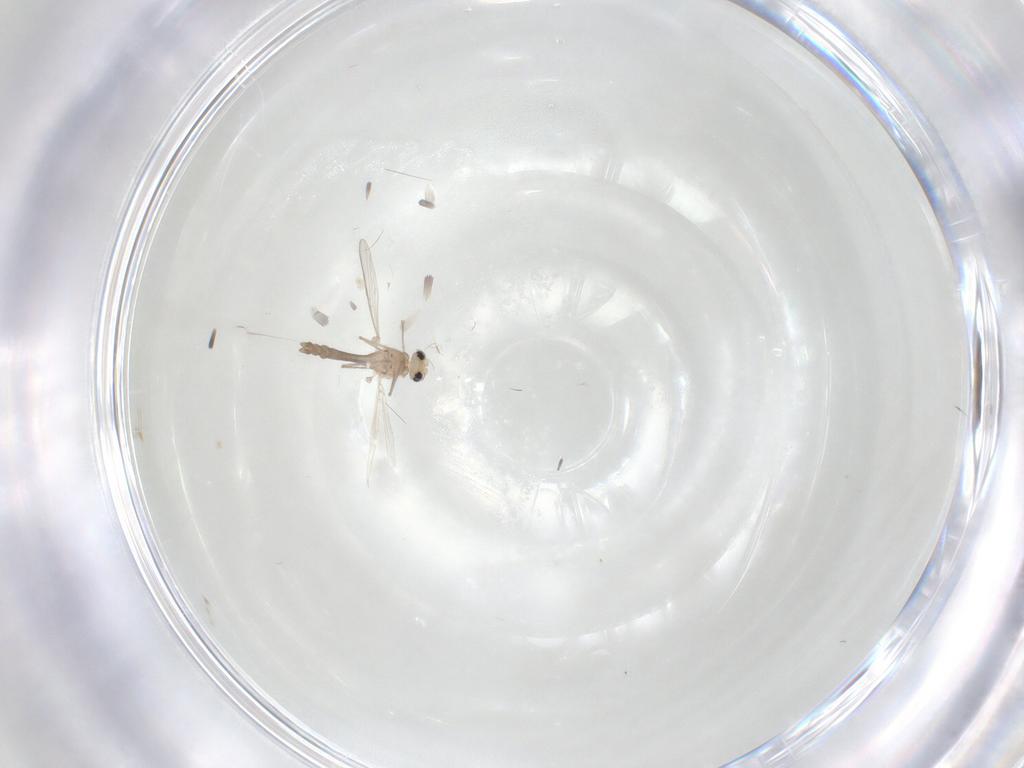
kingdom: Animalia
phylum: Arthropoda
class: Insecta
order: Diptera
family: Chironomidae
